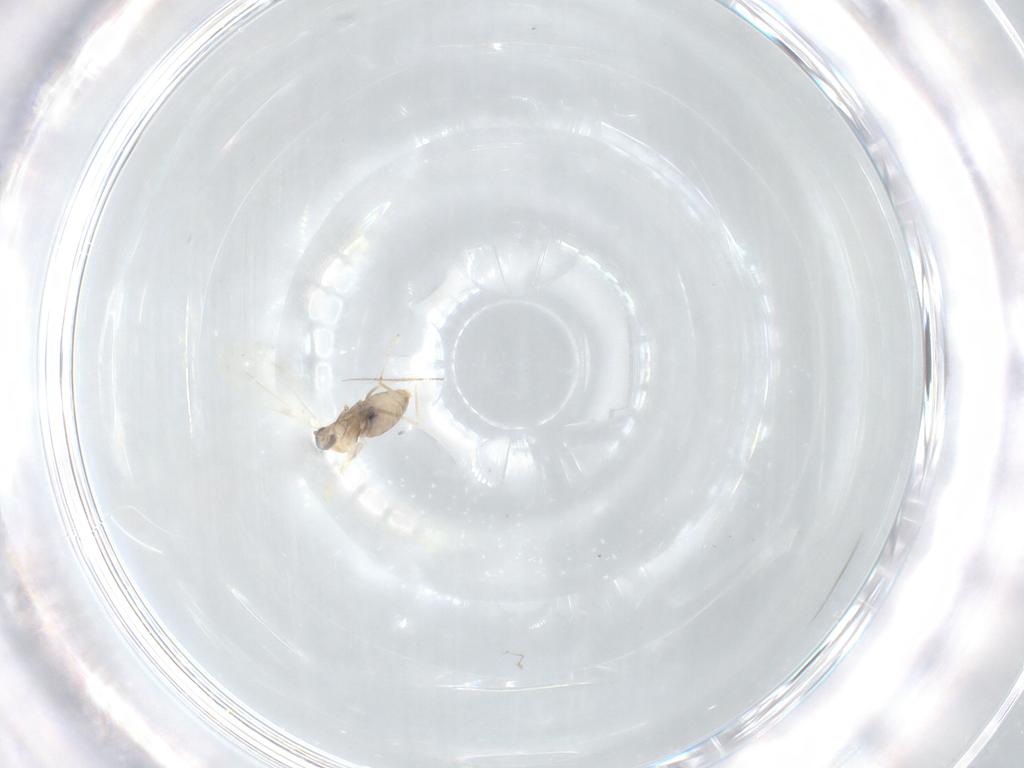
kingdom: Animalia
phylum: Arthropoda
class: Insecta
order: Diptera
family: Cecidomyiidae
